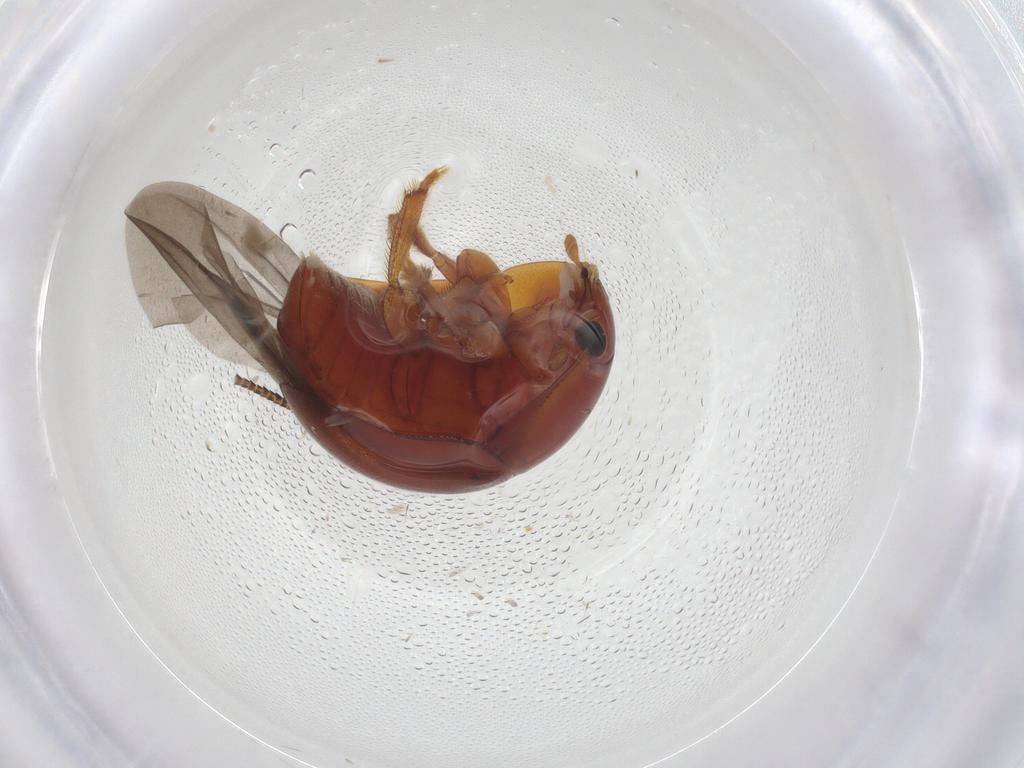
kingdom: Animalia
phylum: Arthropoda
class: Insecta
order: Coleoptera
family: Nitidulidae
